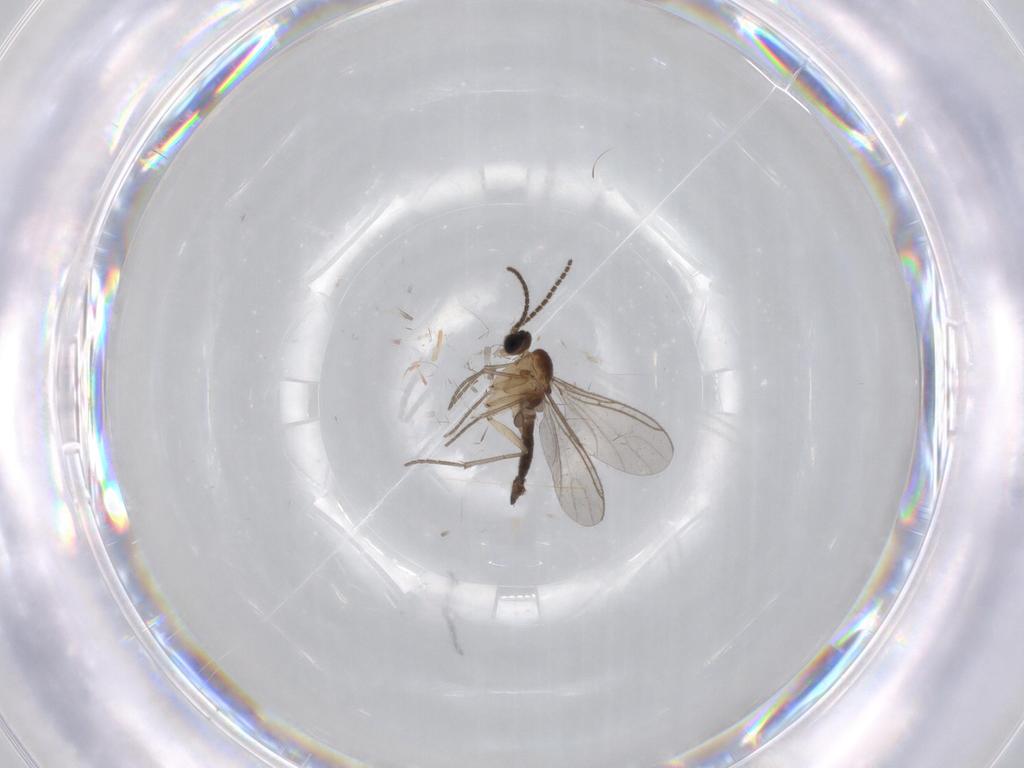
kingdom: Animalia
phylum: Arthropoda
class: Insecta
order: Diptera
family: Sciaridae
